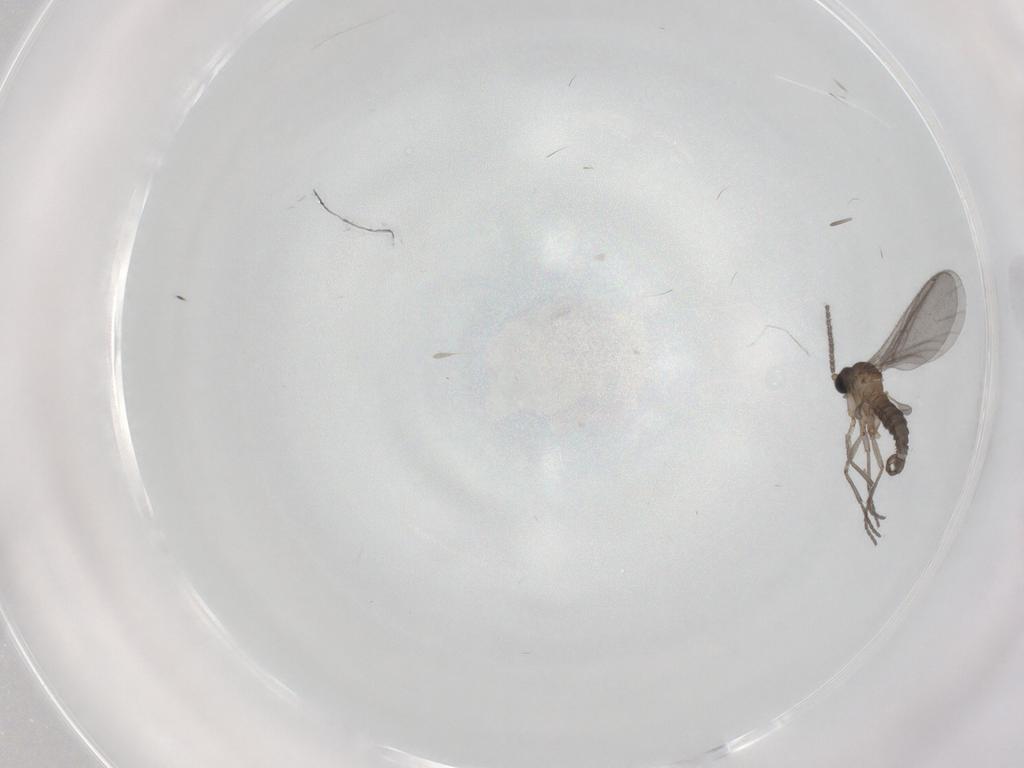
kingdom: Animalia
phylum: Arthropoda
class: Insecta
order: Diptera
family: Sciaridae
